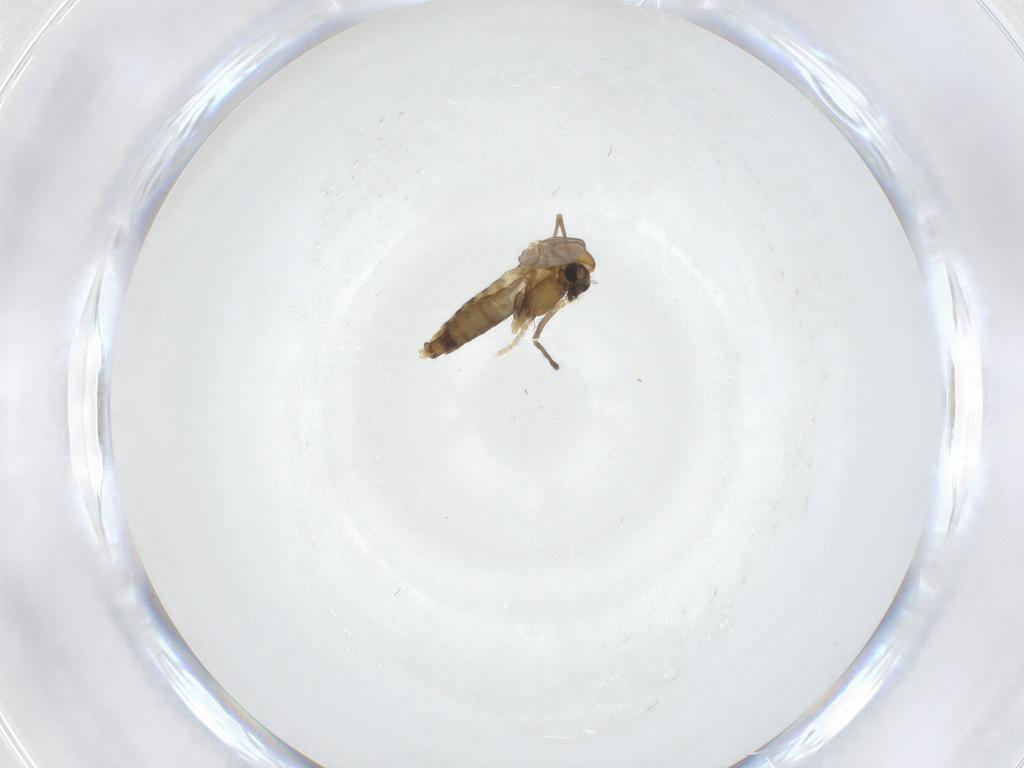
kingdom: Animalia
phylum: Arthropoda
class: Insecta
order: Diptera
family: Chironomidae
